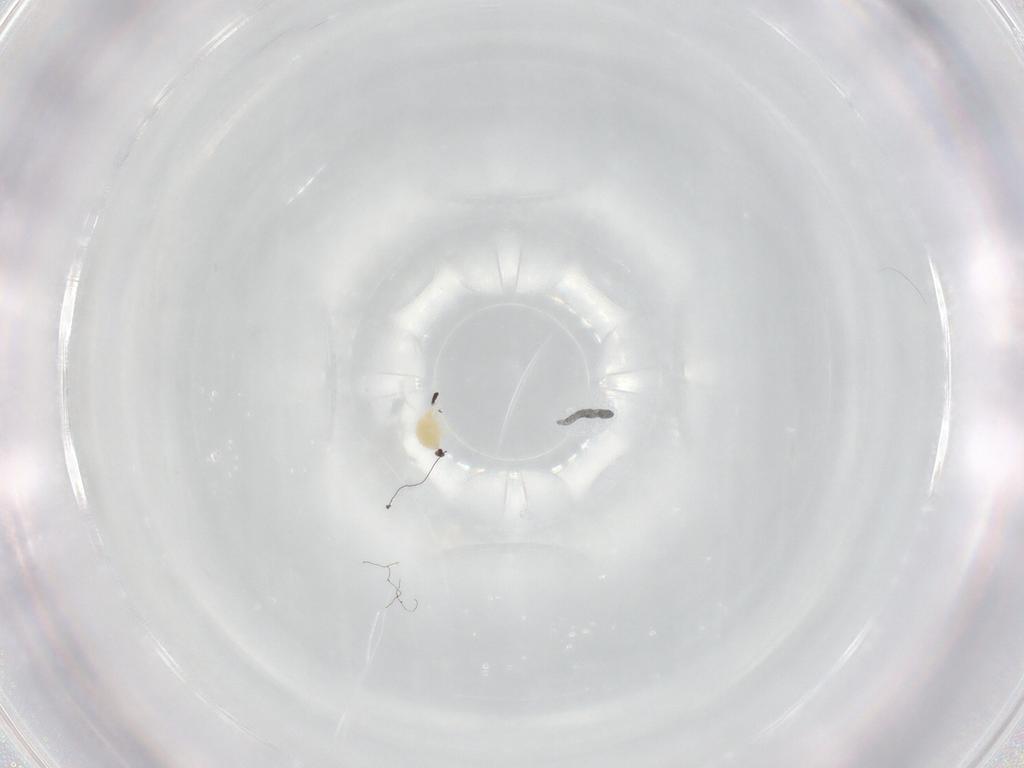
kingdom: Animalia
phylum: Arthropoda
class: Arachnida
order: Trombidiformes
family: Tetranychidae
